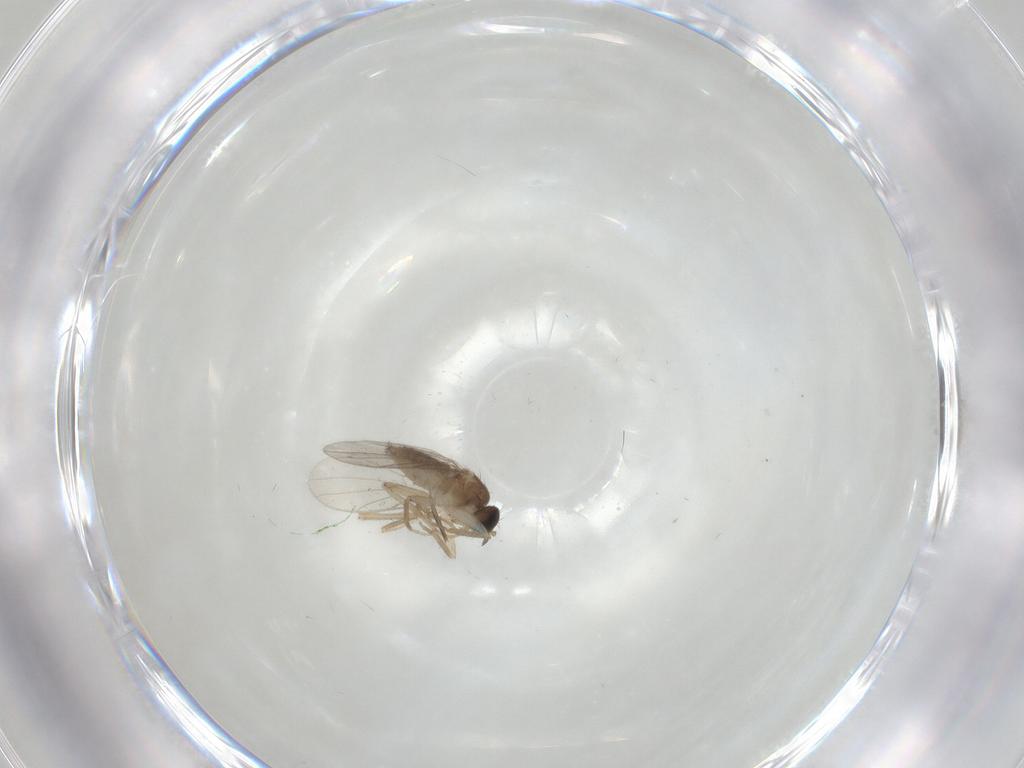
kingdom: Animalia
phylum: Arthropoda
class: Insecta
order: Diptera
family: Hybotidae
